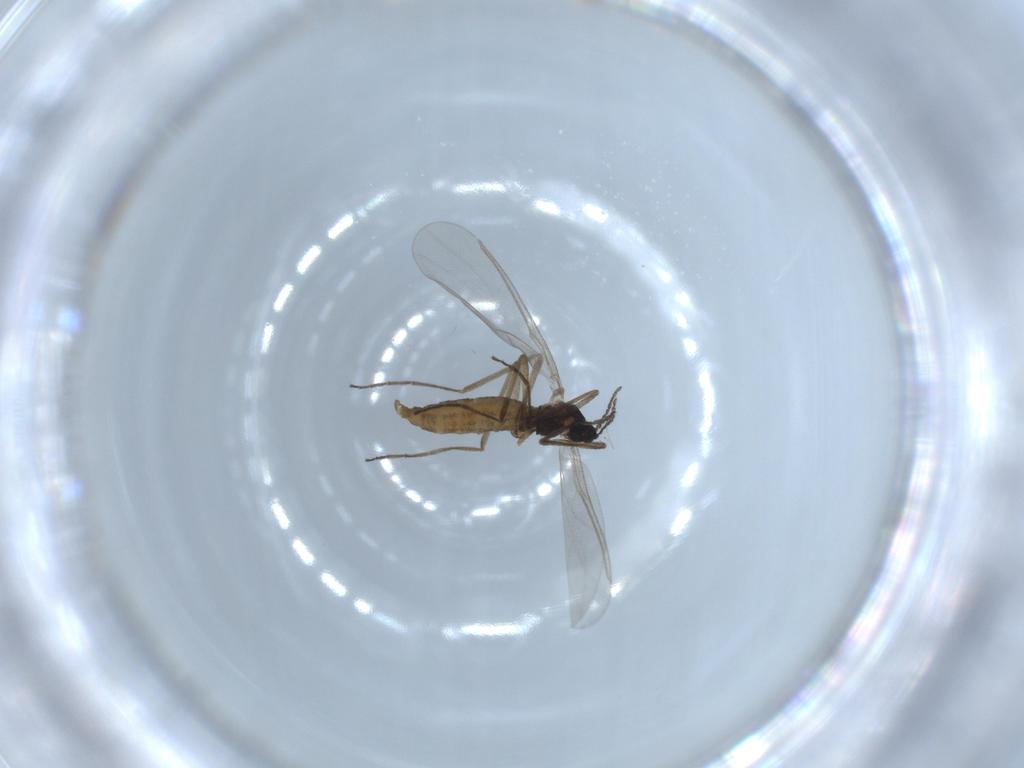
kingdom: Animalia
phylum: Arthropoda
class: Insecta
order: Diptera
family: Cecidomyiidae
